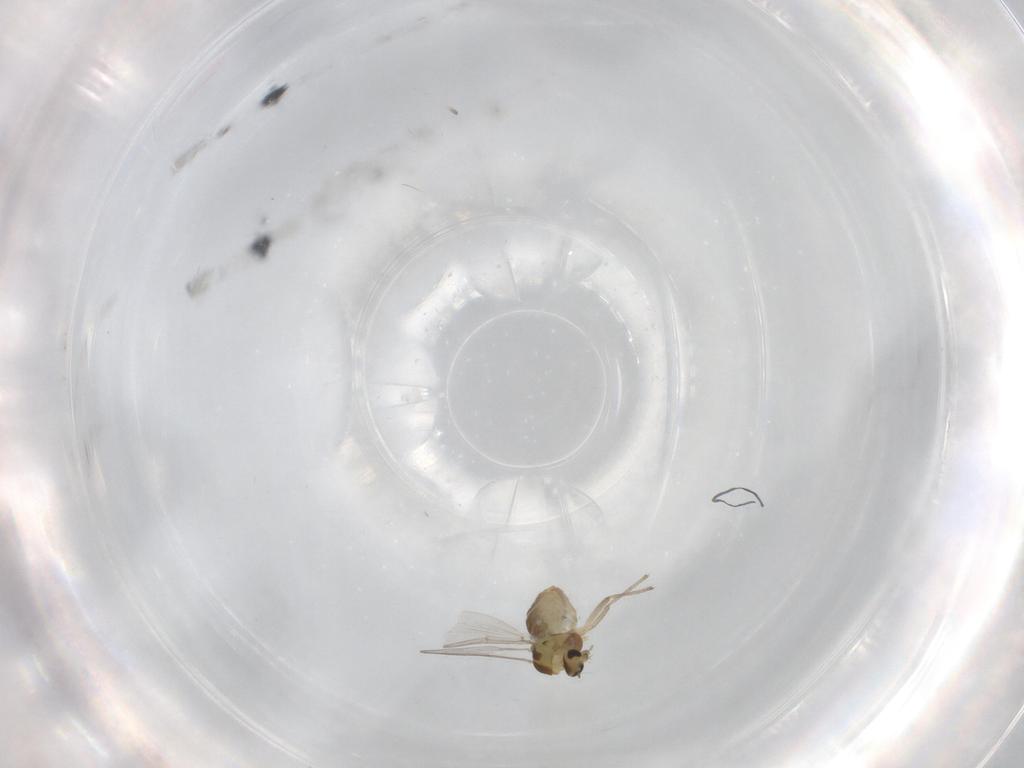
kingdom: Animalia
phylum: Arthropoda
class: Insecta
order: Diptera
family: Chironomidae
